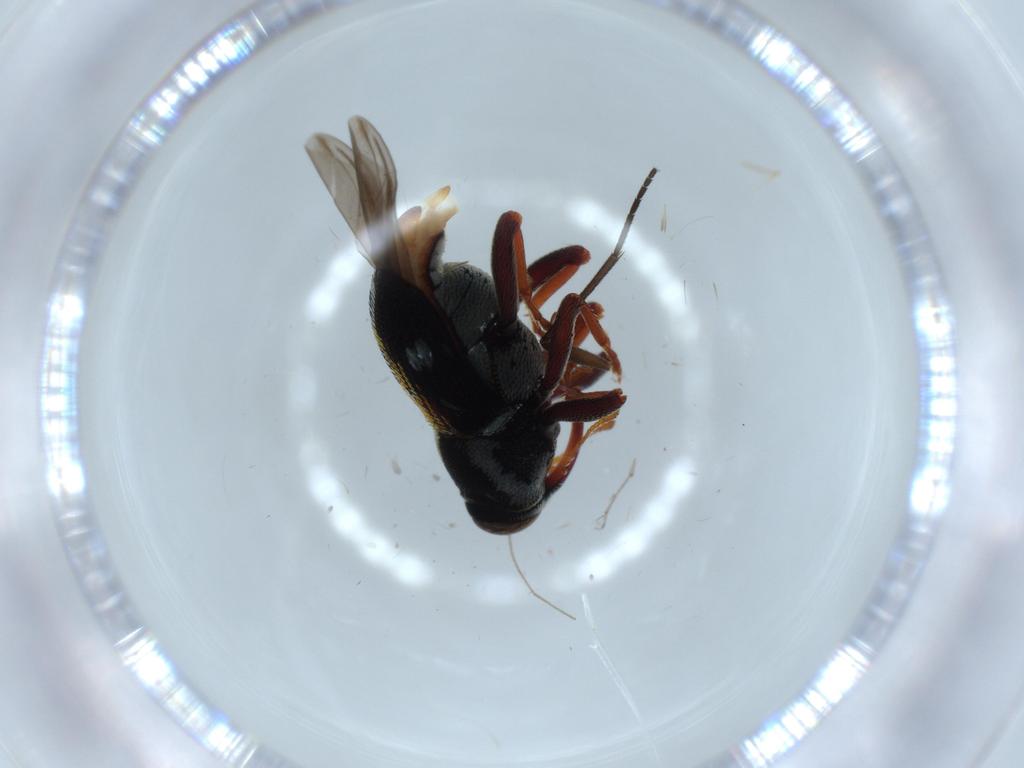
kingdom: Animalia
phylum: Arthropoda
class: Insecta
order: Coleoptera
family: Curculionidae
